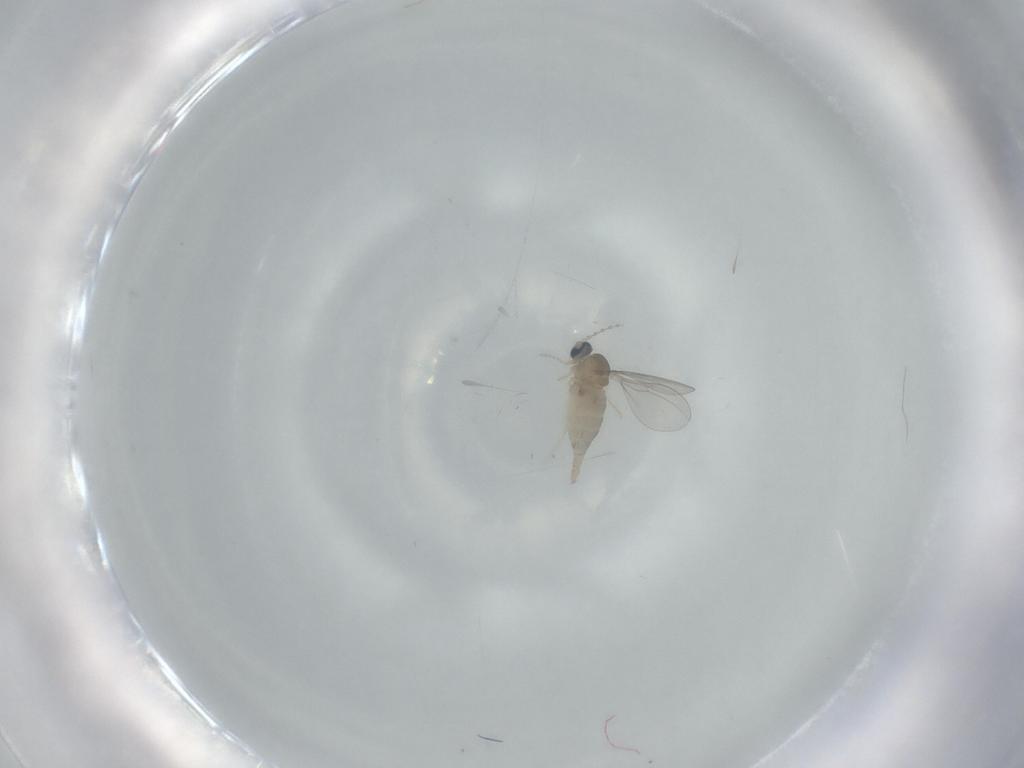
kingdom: Animalia
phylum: Arthropoda
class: Insecta
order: Diptera
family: Cecidomyiidae
